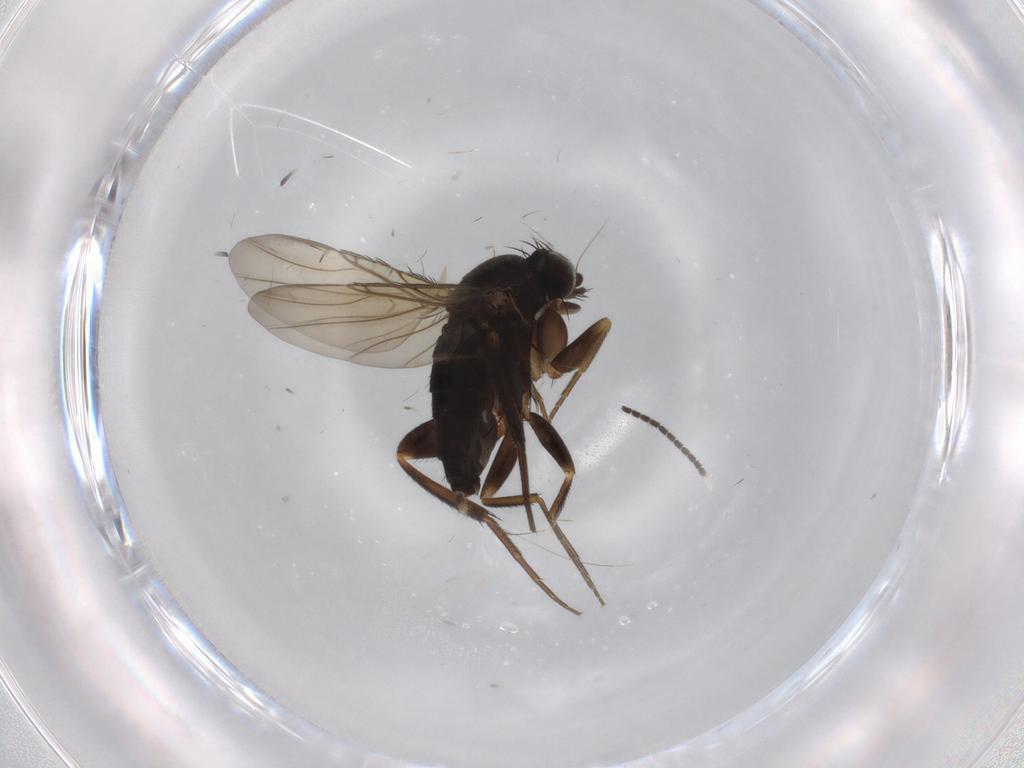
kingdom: Animalia
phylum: Arthropoda
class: Insecta
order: Diptera
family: Phoridae
